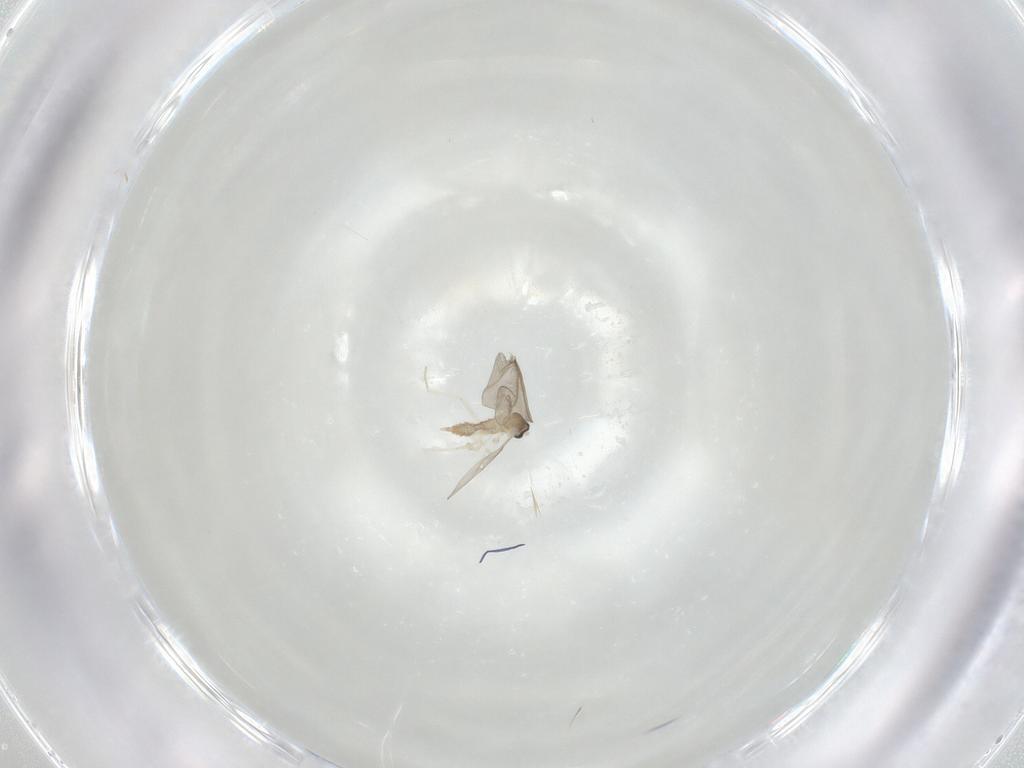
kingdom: Animalia
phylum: Arthropoda
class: Insecta
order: Diptera
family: Cecidomyiidae
